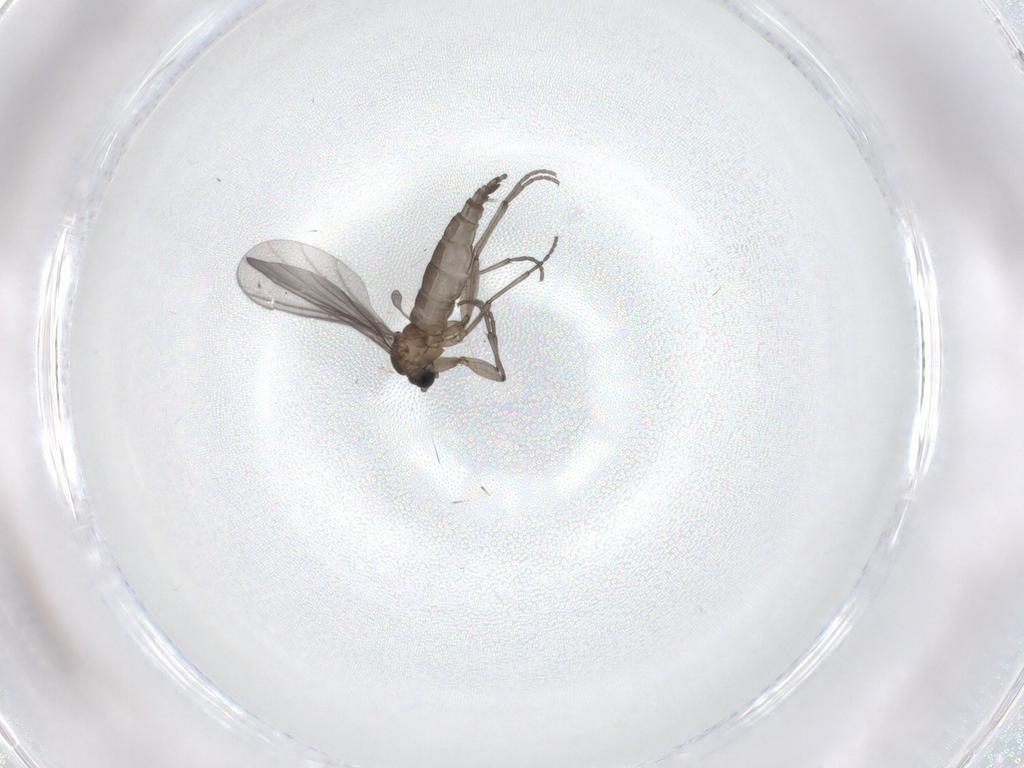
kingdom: Animalia
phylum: Arthropoda
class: Insecta
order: Diptera
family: Sciaridae
